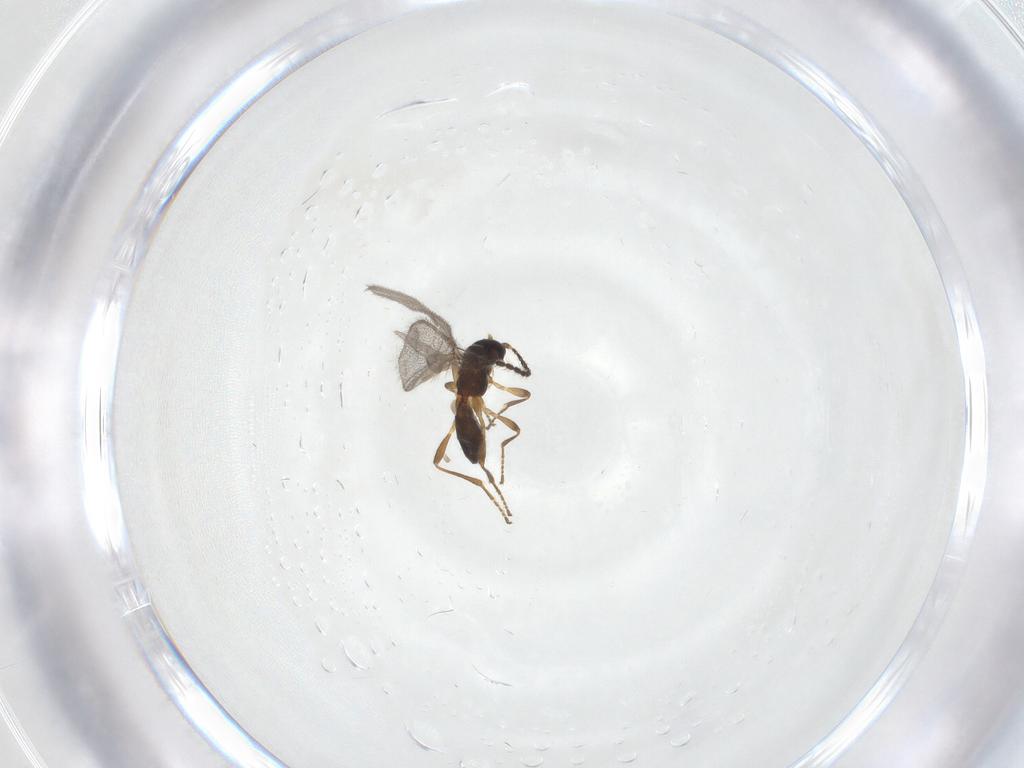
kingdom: Animalia
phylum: Arthropoda
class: Insecta
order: Hymenoptera
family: Braconidae
